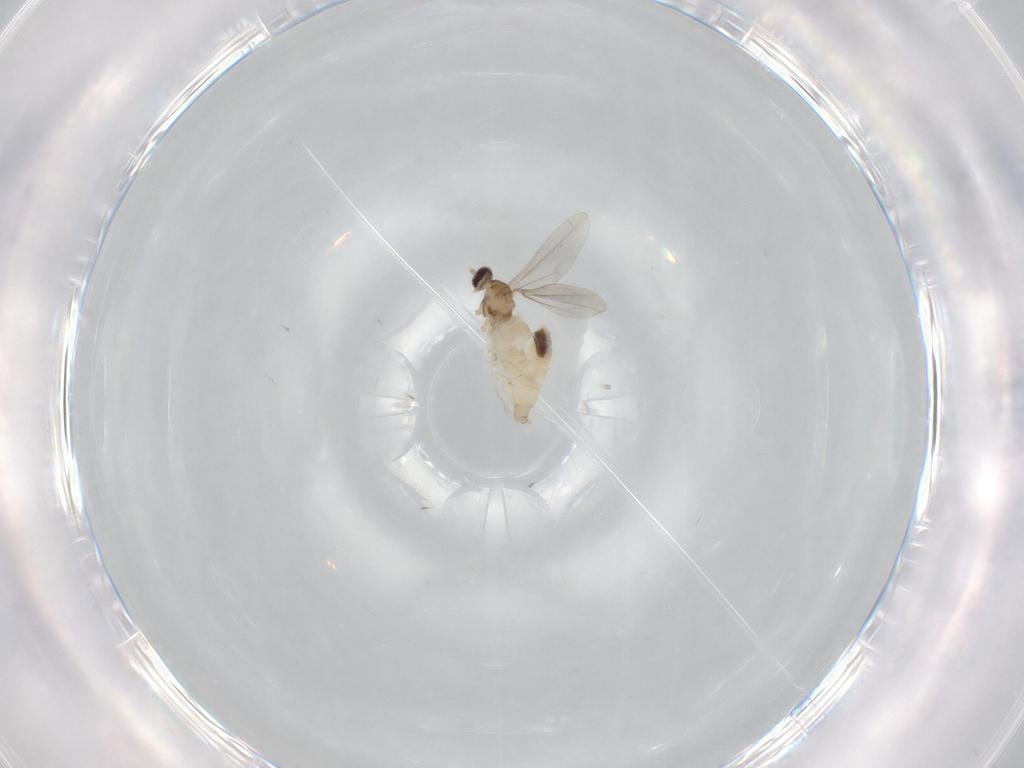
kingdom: Animalia
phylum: Arthropoda
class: Insecta
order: Diptera
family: Cecidomyiidae
